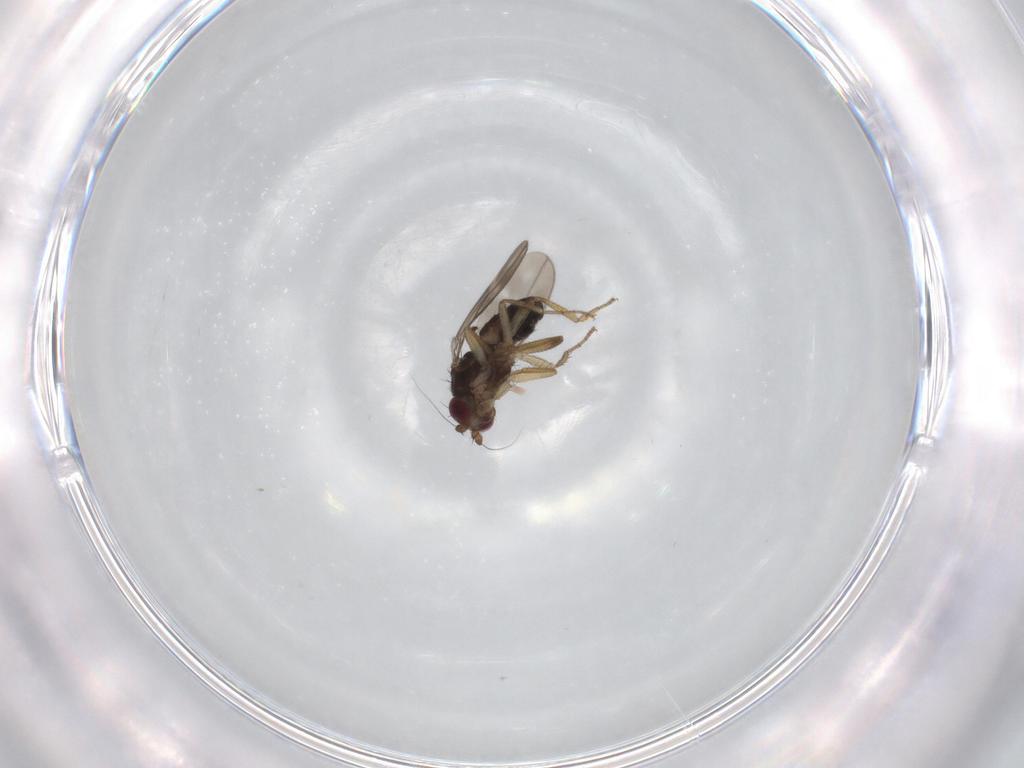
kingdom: Animalia
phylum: Arthropoda
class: Insecta
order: Diptera
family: Sphaeroceridae
